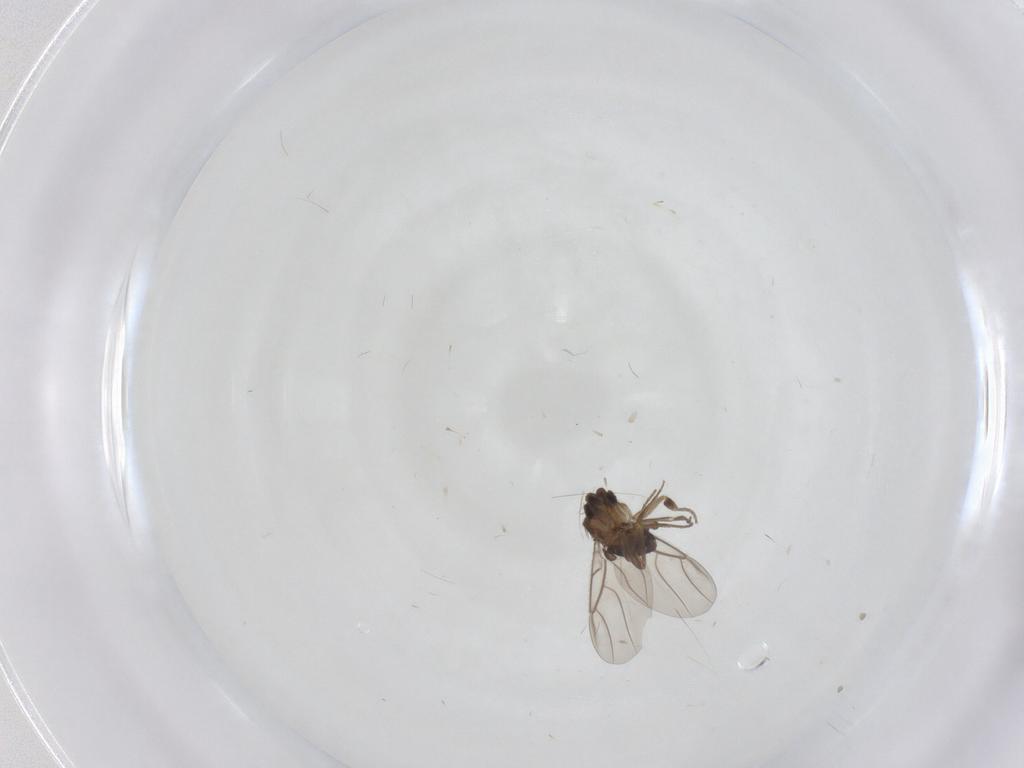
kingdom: Animalia
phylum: Arthropoda
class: Insecta
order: Diptera
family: Phoridae
